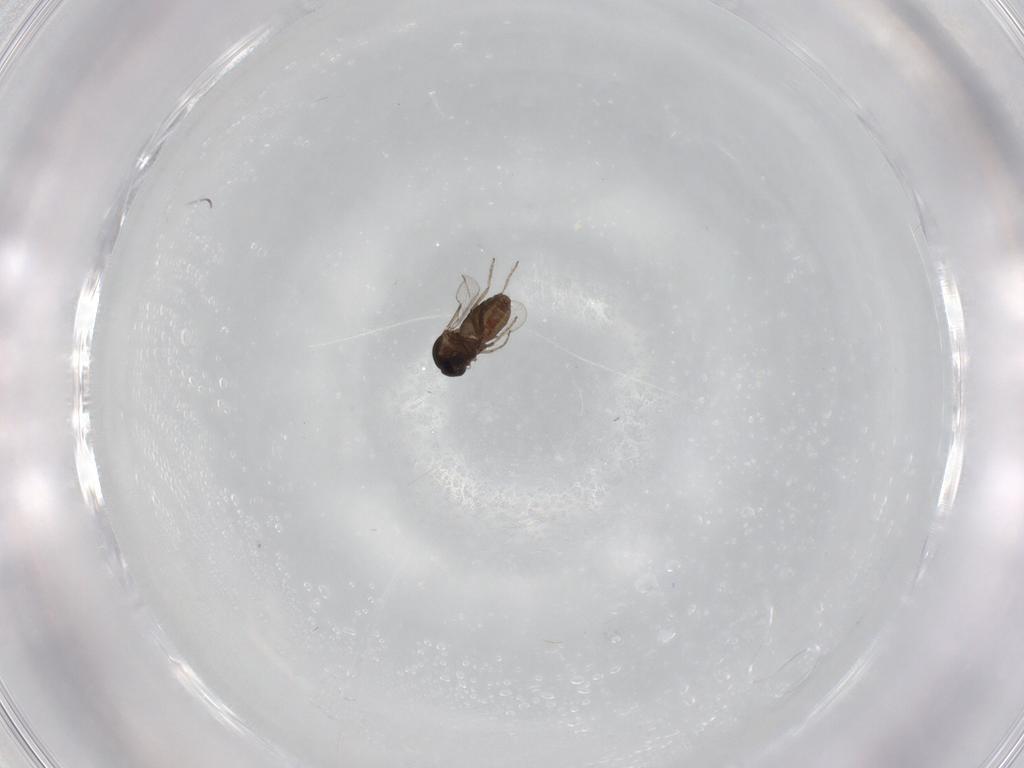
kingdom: Animalia
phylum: Arthropoda
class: Insecta
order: Diptera
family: Ceratopogonidae
